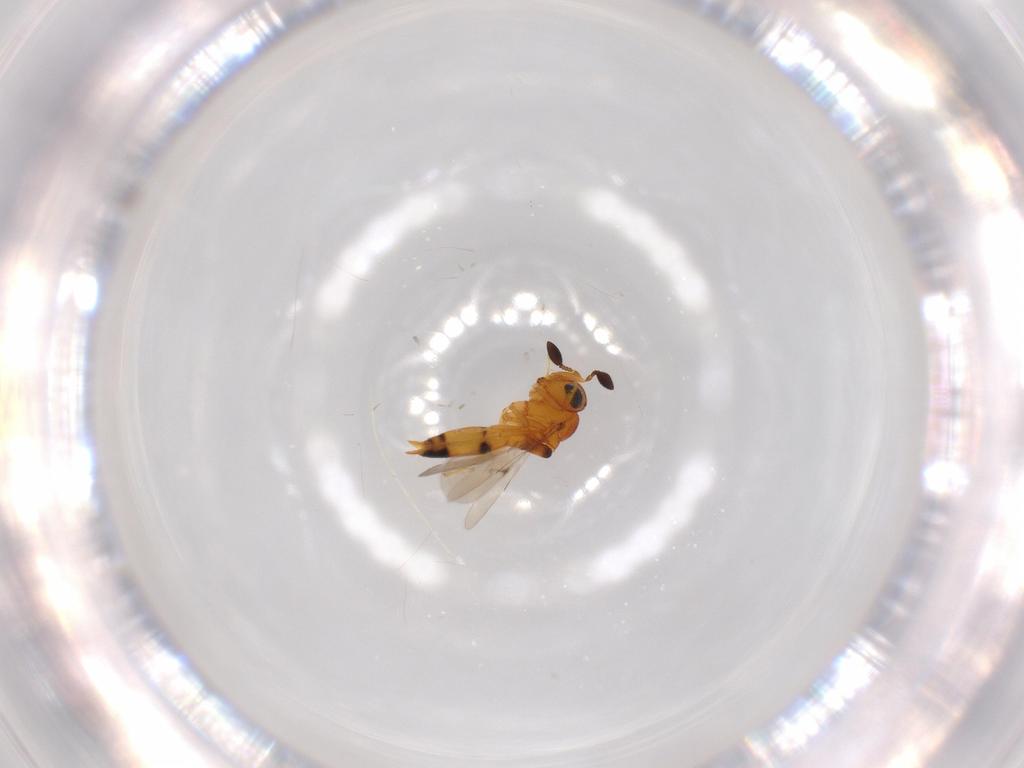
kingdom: Animalia
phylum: Arthropoda
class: Insecta
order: Hymenoptera
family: Scelionidae
